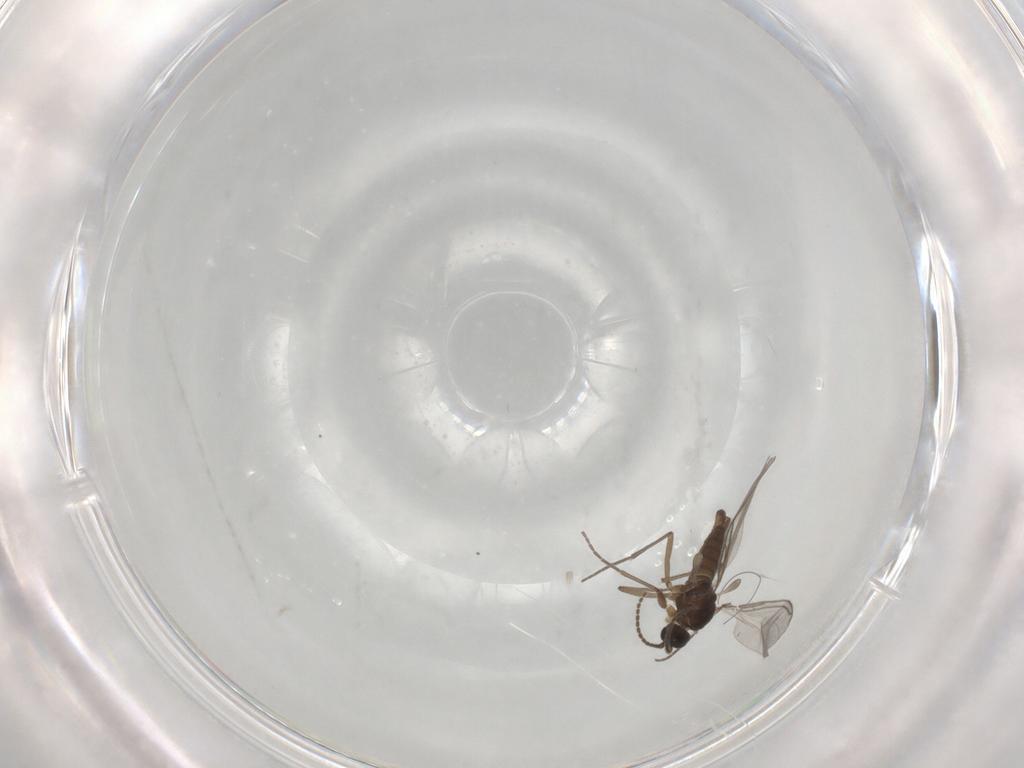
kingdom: Animalia
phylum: Arthropoda
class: Insecta
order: Diptera
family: Sciaridae
